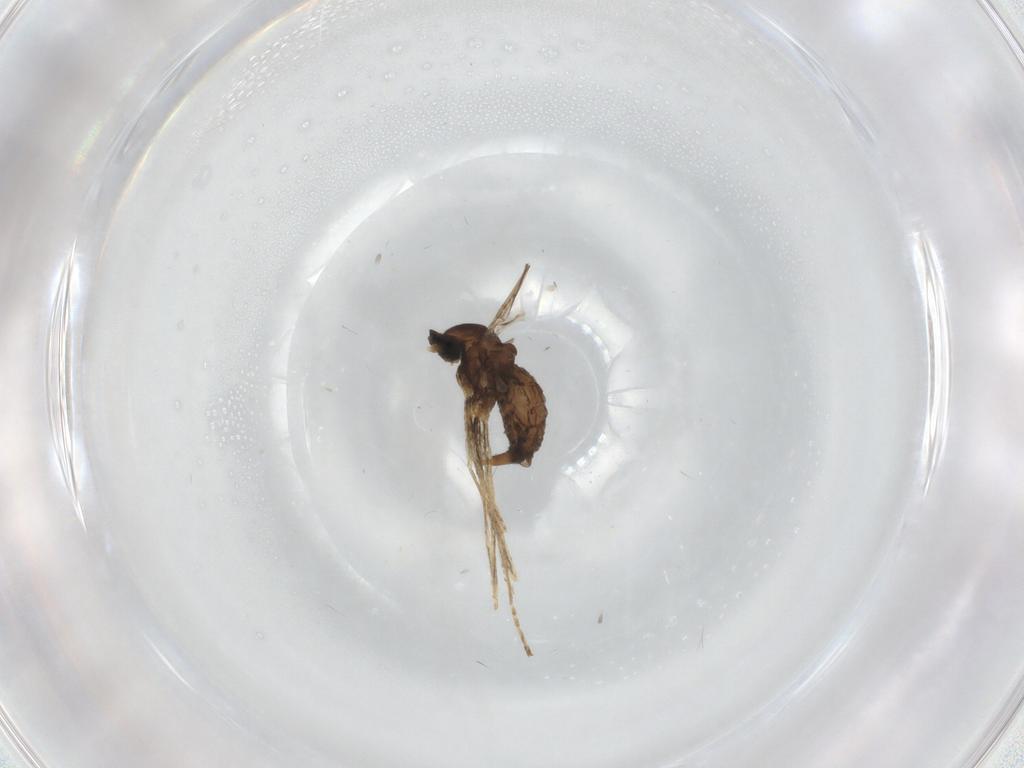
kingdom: Animalia
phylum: Arthropoda
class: Insecta
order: Diptera
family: Cecidomyiidae
